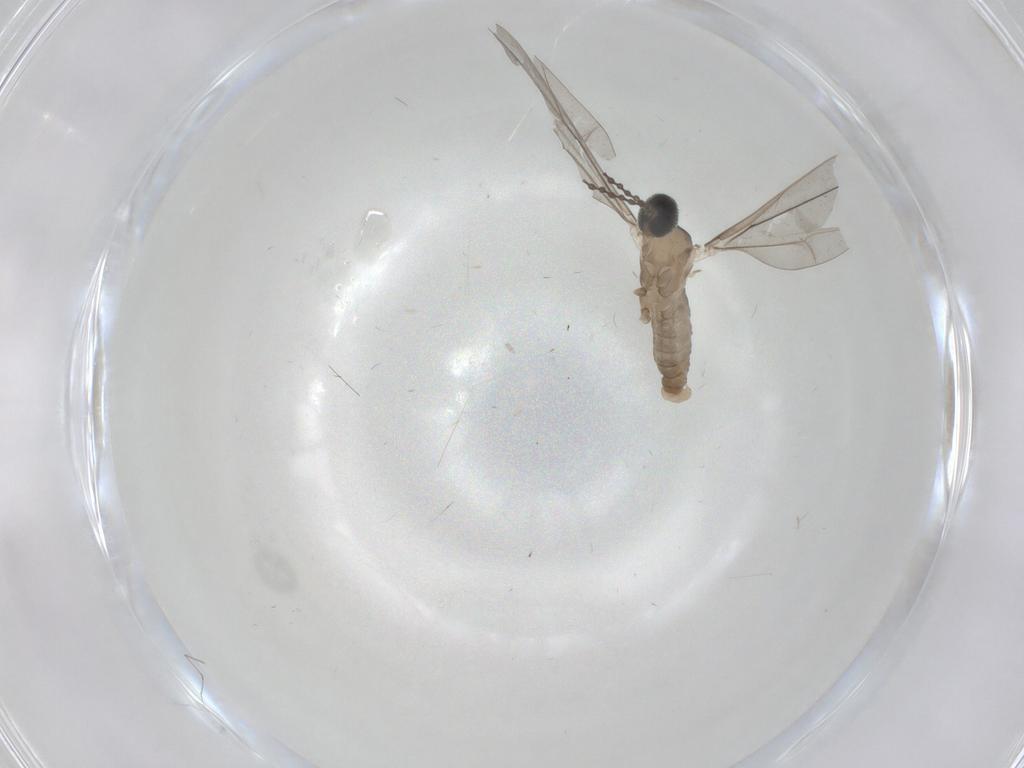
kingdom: Animalia
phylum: Arthropoda
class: Insecta
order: Diptera
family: Cecidomyiidae
